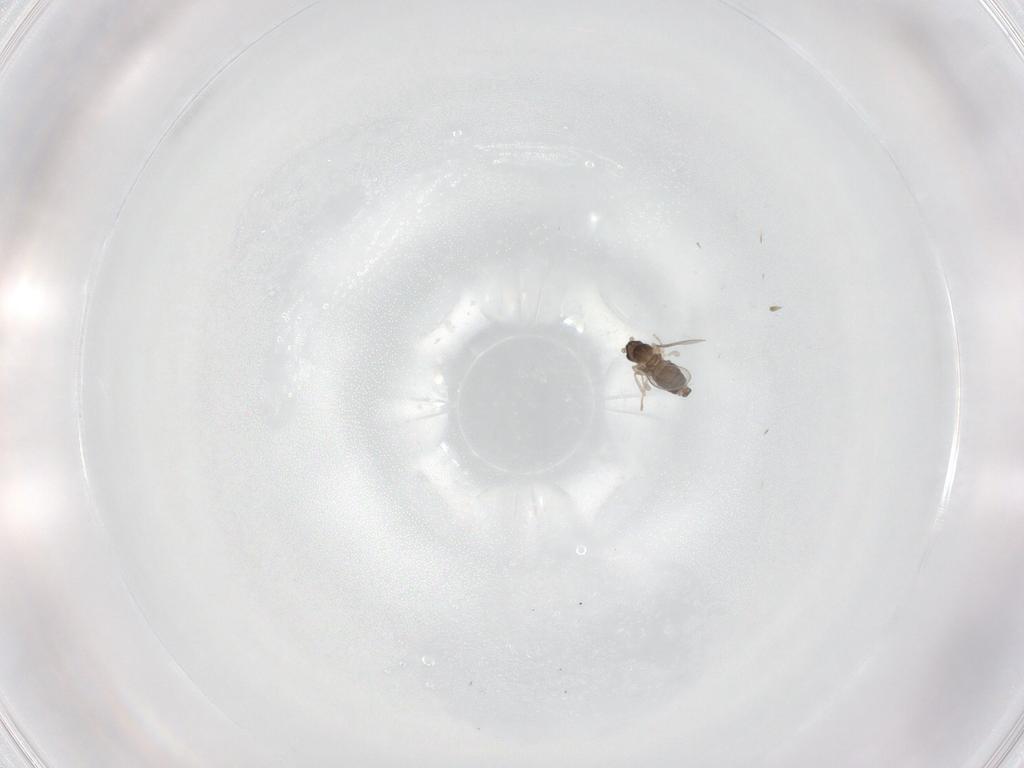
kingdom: Animalia
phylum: Arthropoda
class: Insecta
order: Diptera
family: Cecidomyiidae
